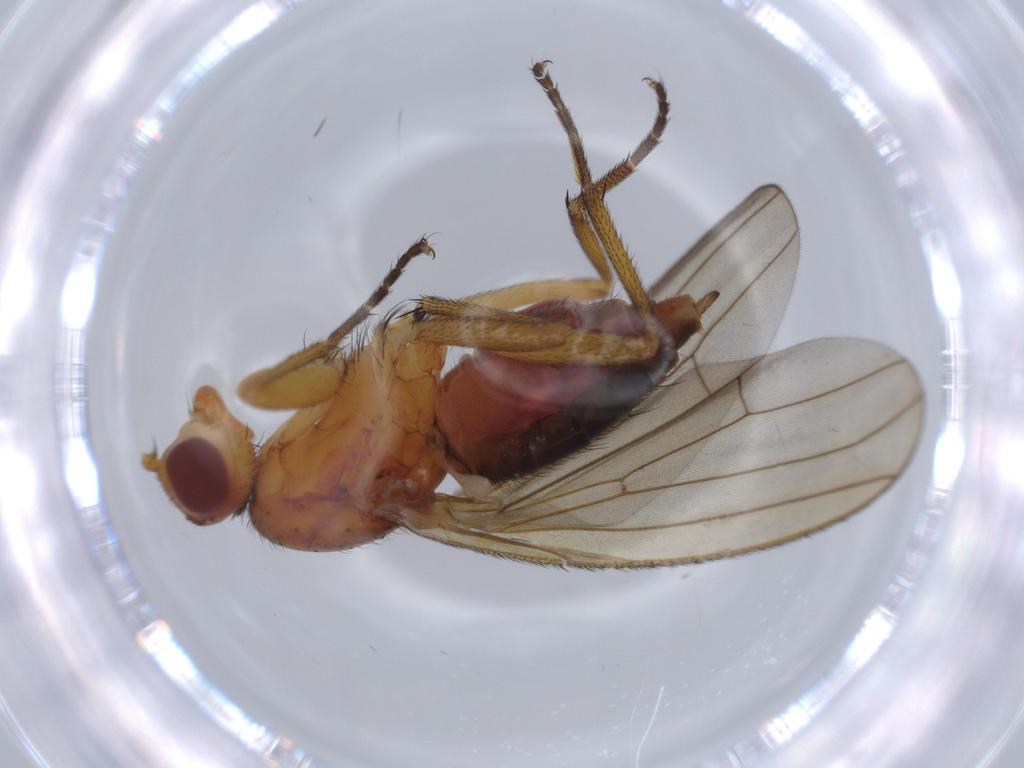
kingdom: Animalia
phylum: Arthropoda
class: Insecta
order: Diptera
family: Heleomyzidae
